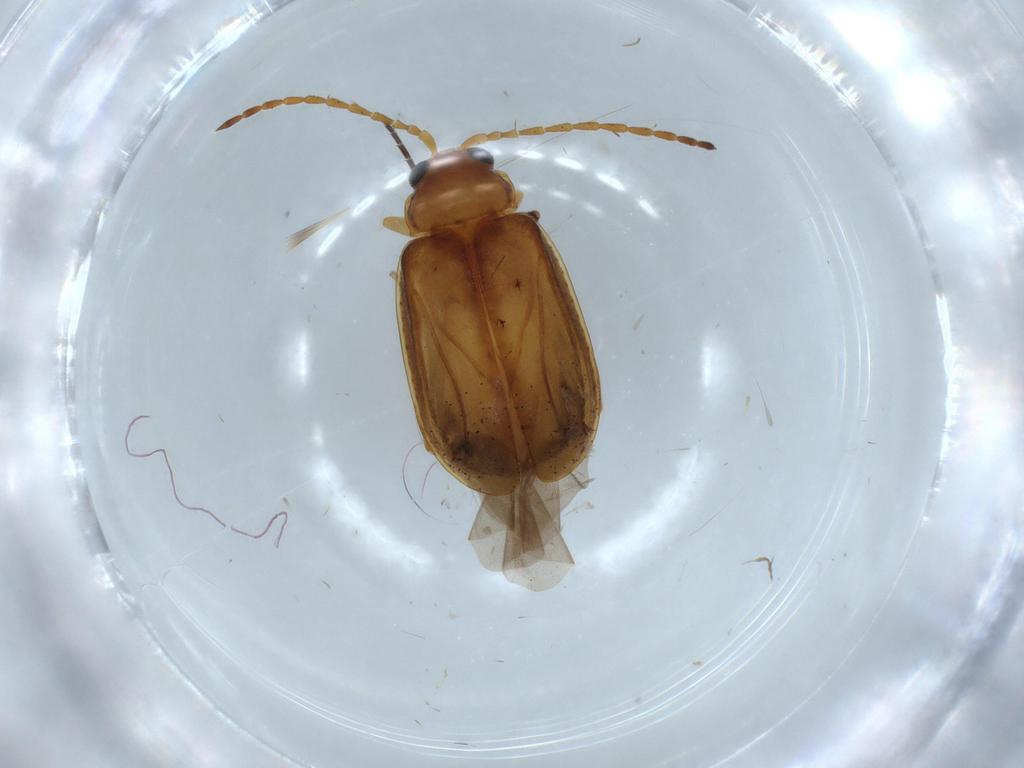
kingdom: Animalia
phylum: Arthropoda
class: Insecta
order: Coleoptera
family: Chrysomelidae
